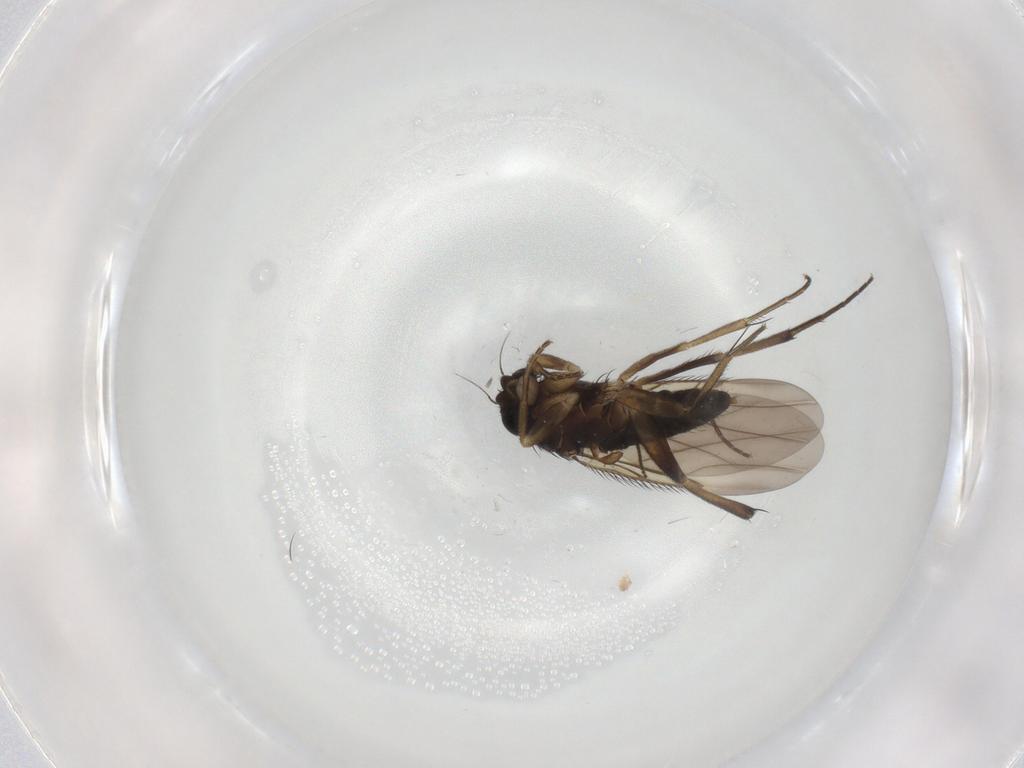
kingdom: Animalia
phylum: Arthropoda
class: Insecta
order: Diptera
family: Phoridae
